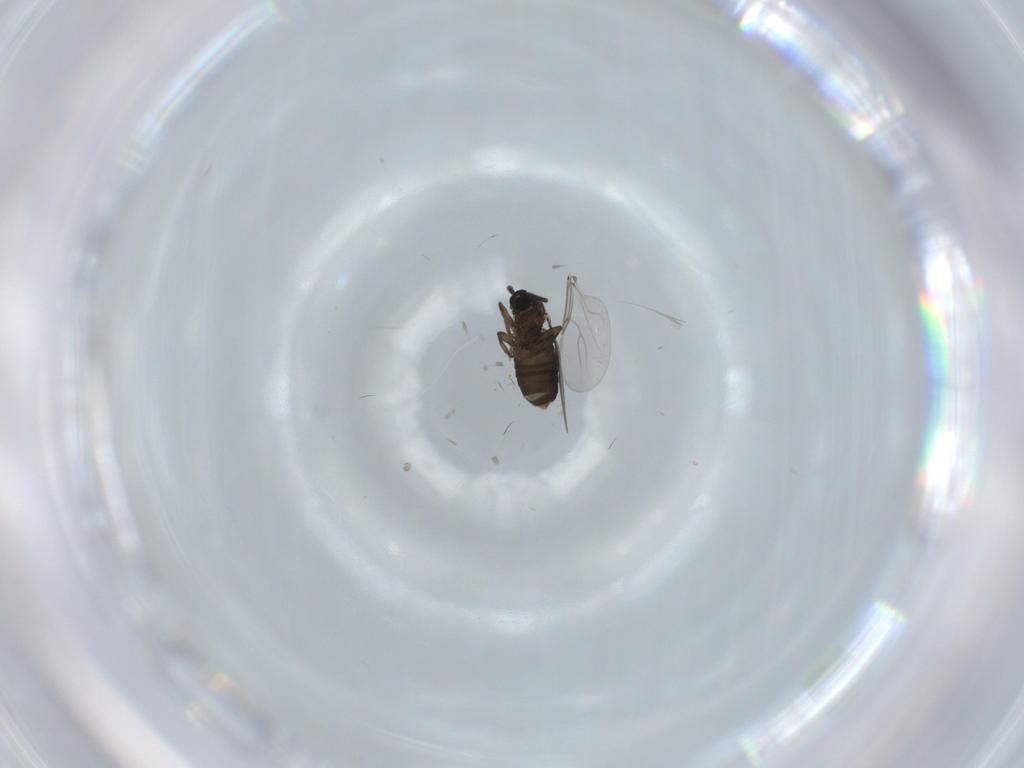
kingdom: Animalia
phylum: Arthropoda
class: Insecta
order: Diptera
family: Scatopsidae
